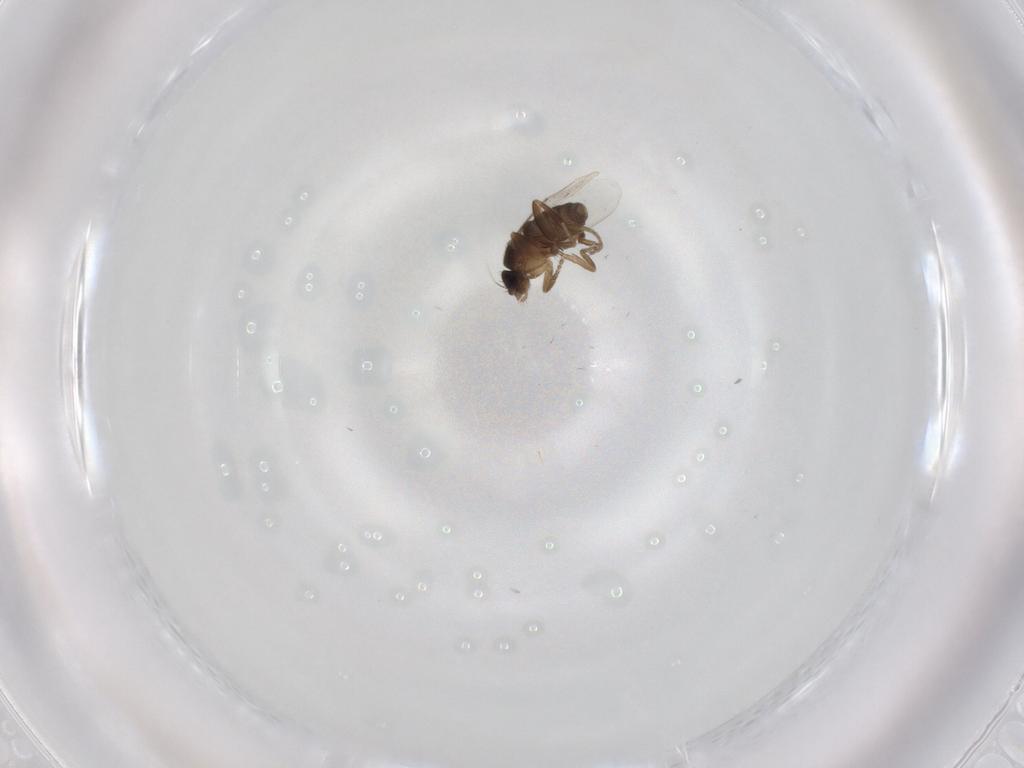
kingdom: Animalia
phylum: Arthropoda
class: Insecta
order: Diptera
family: Phoridae
